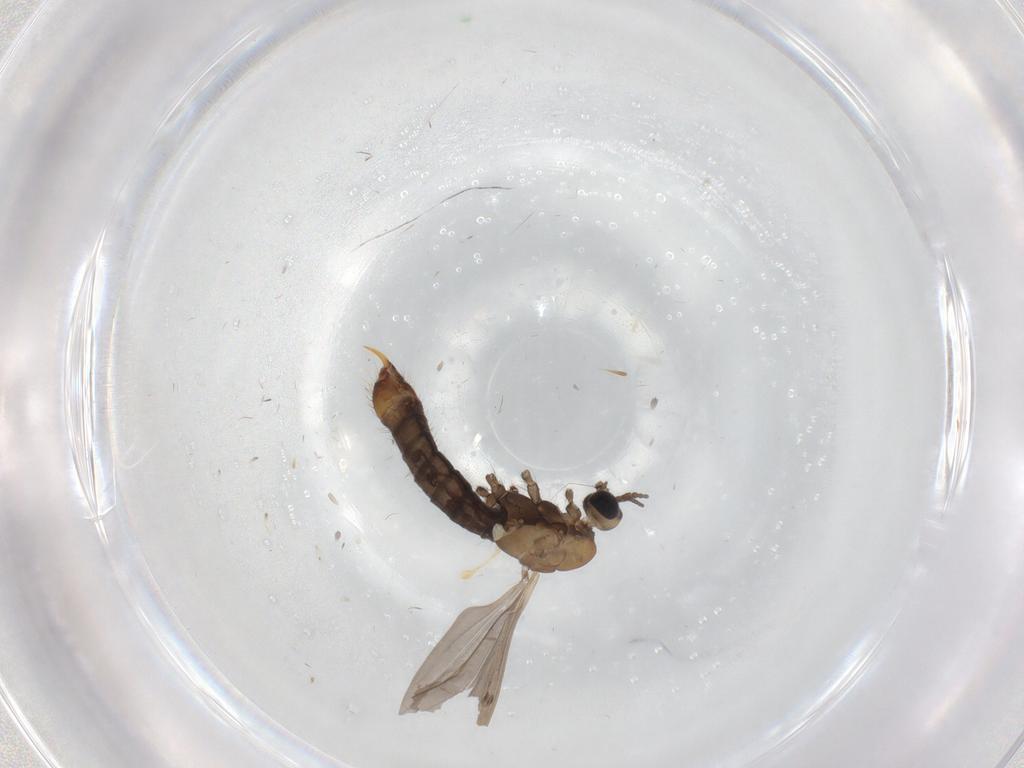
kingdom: Animalia
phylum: Arthropoda
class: Insecta
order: Diptera
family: Limoniidae
